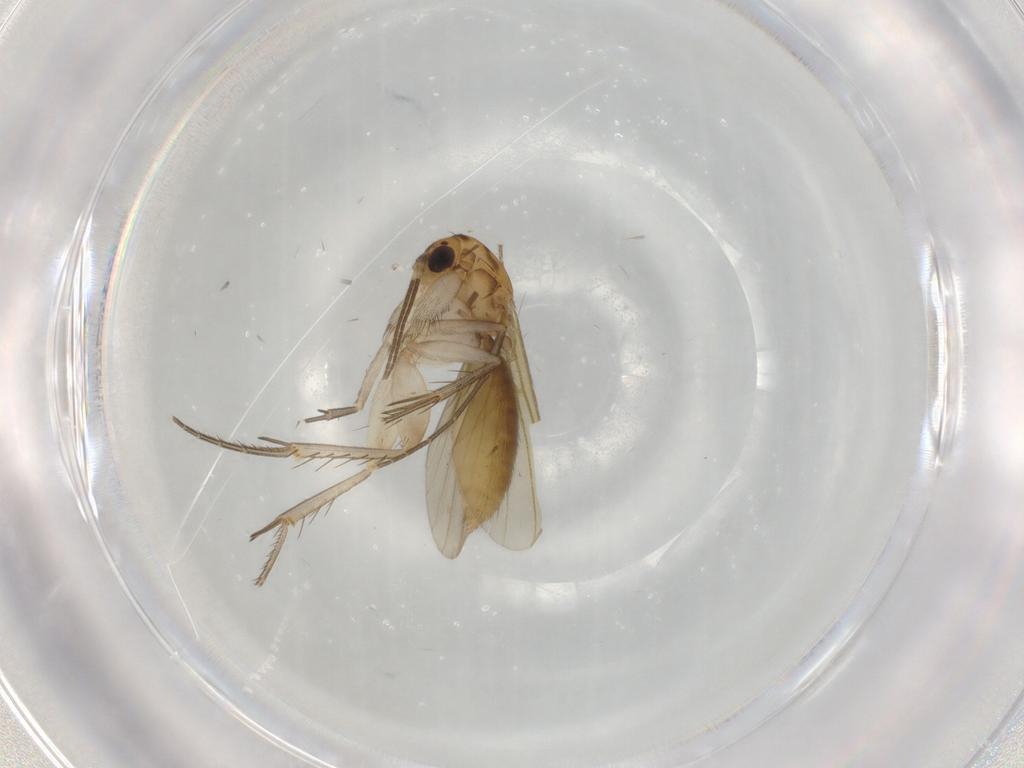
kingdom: Animalia
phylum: Arthropoda
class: Insecta
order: Diptera
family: Mycetophilidae
